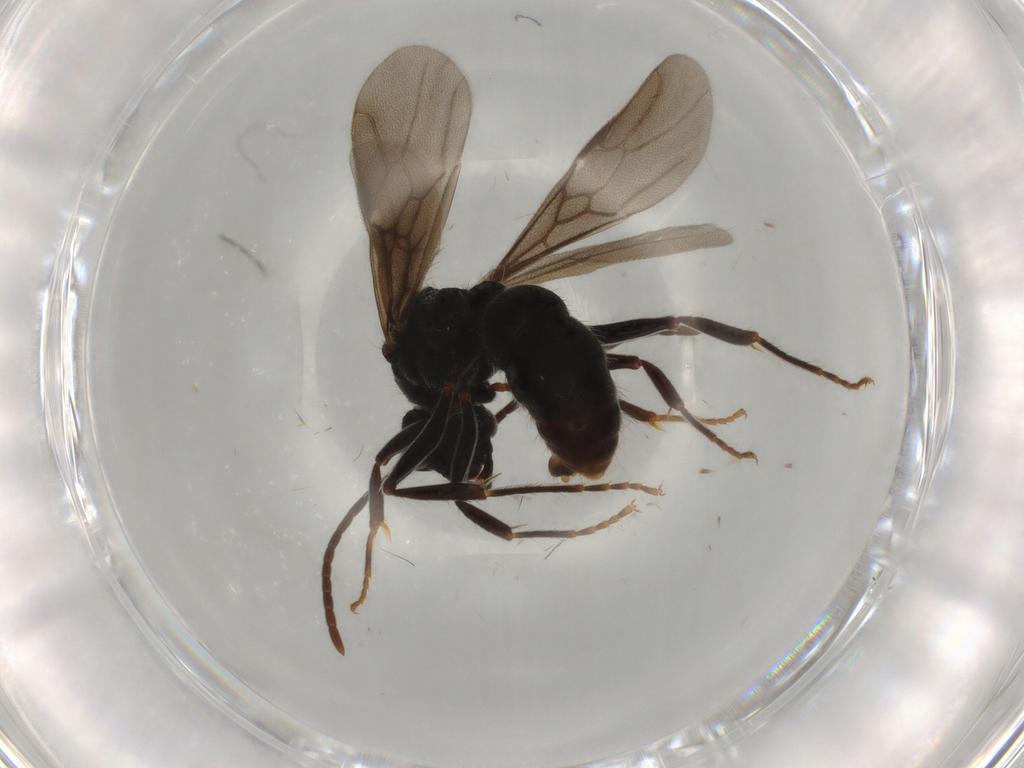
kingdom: Animalia
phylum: Arthropoda
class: Insecta
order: Hymenoptera
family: Formicidae
